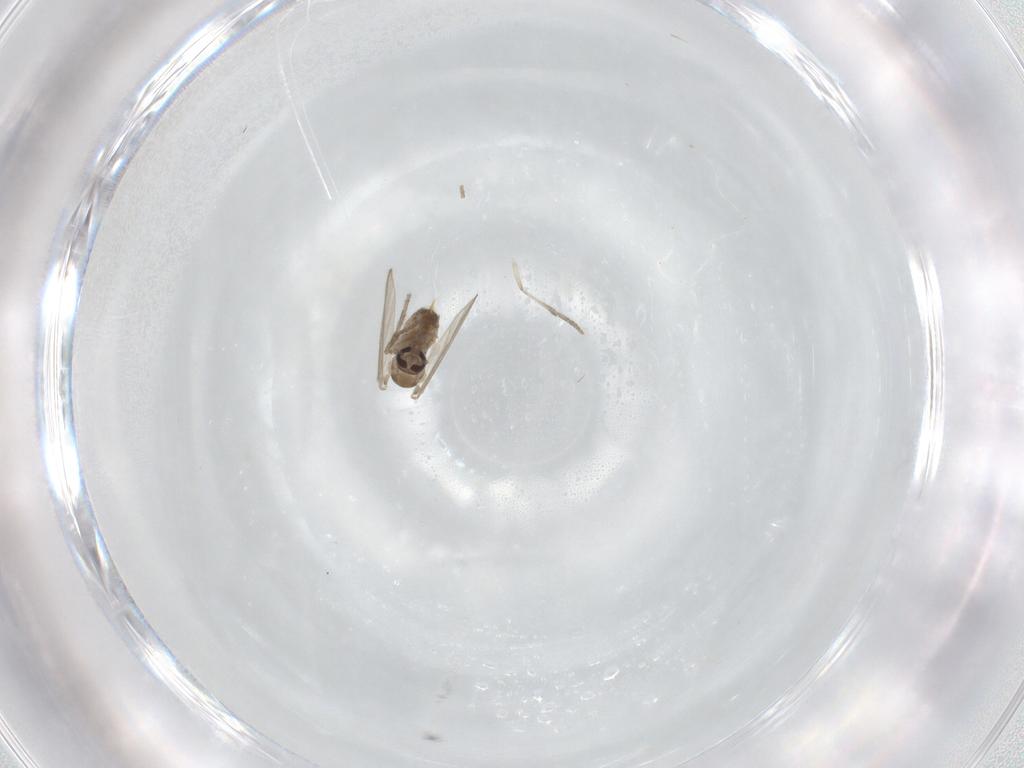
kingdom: Animalia
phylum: Arthropoda
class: Insecta
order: Diptera
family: Psychodidae
